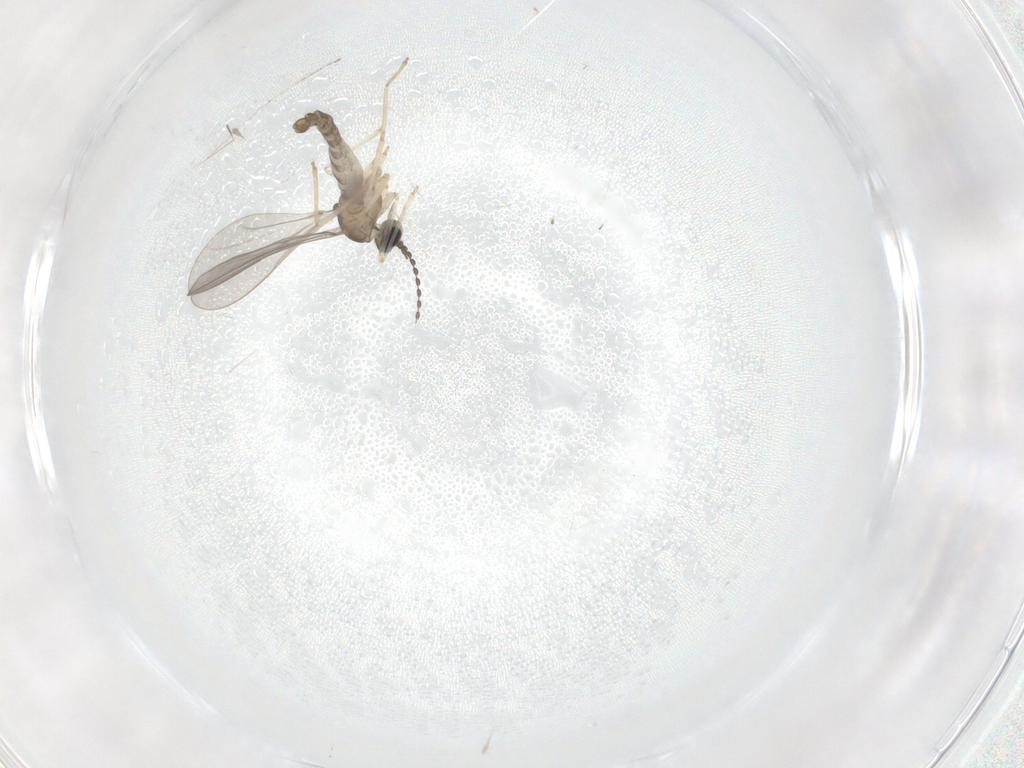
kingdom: Animalia
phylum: Arthropoda
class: Insecta
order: Diptera
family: Cecidomyiidae
